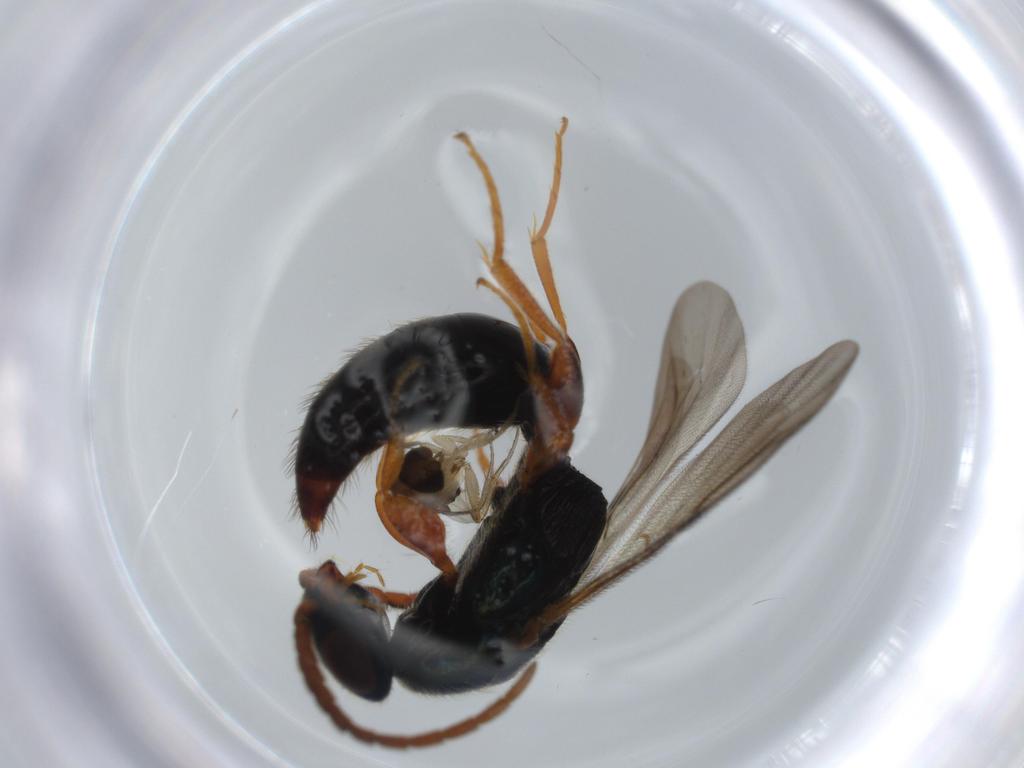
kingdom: Animalia
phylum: Arthropoda
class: Insecta
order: Hymenoptera
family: Bethylidae
